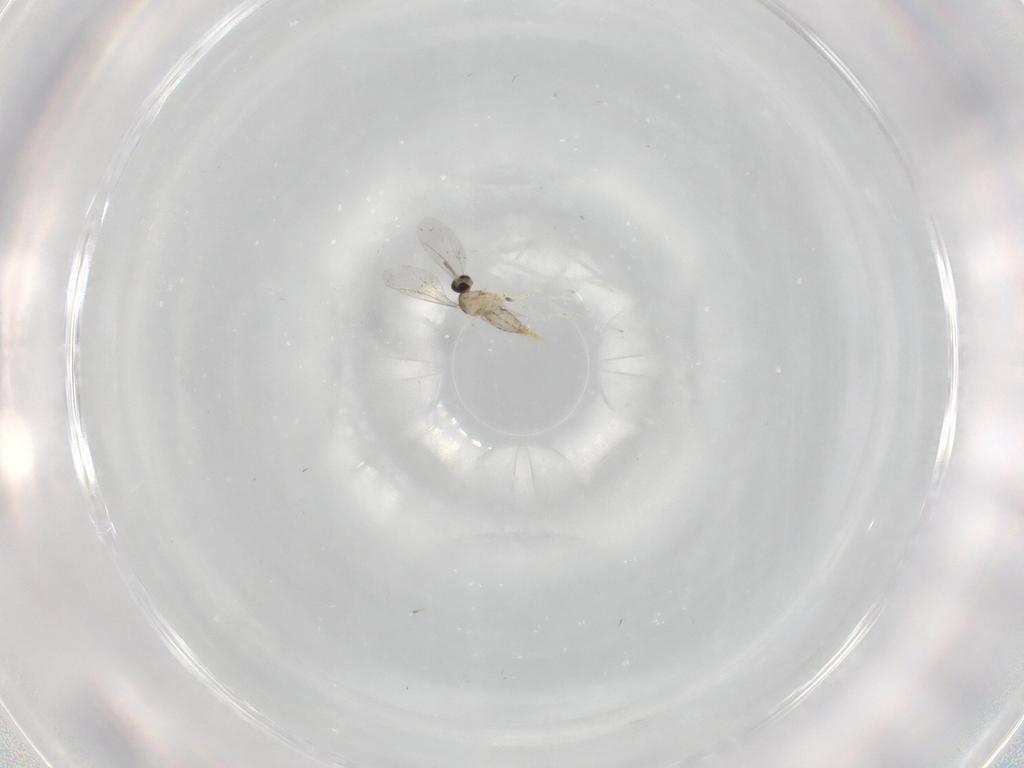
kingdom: Animalia
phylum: Arthropoda
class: Insecta
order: Diptera
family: Cecidomyiidae
